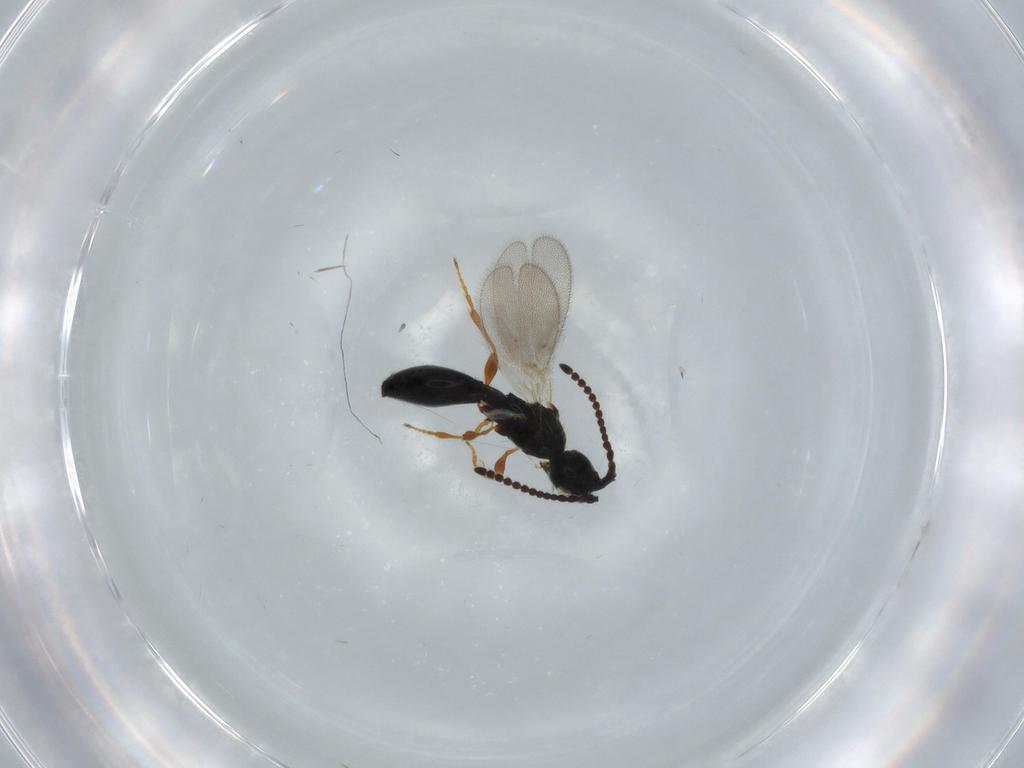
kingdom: Animalia
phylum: Arthropoda
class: Insecta
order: Hymenoptera
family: Diapriidae
